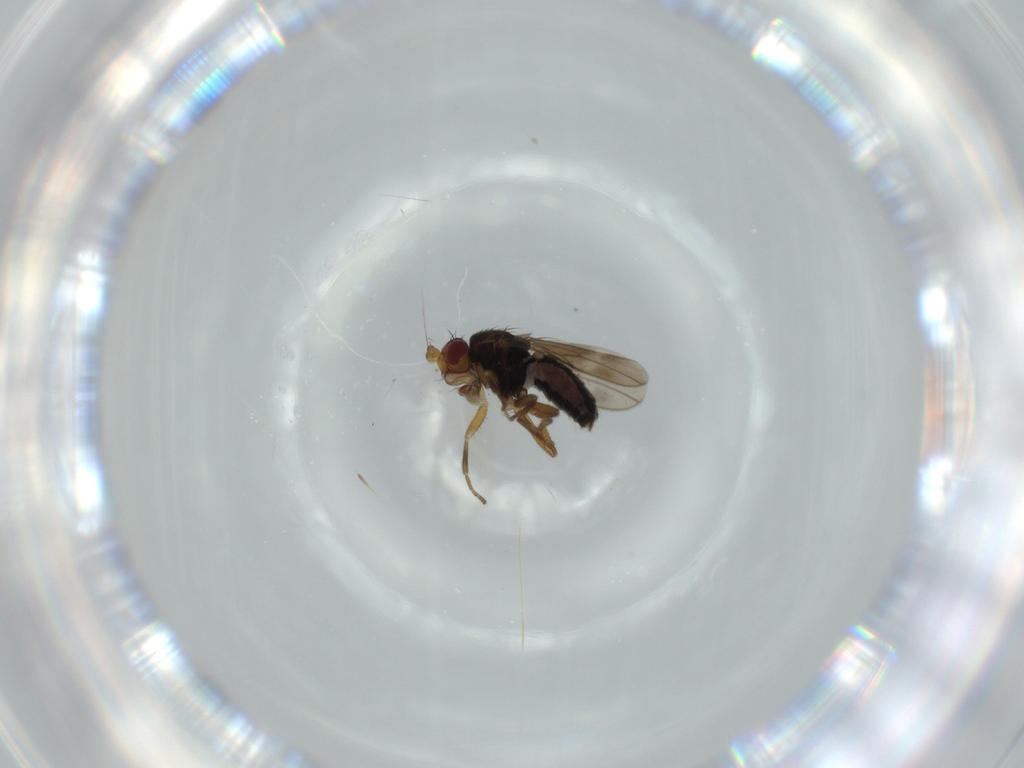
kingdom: Animalia
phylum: Arthropoda
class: Insecta
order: Diptera
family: Sphaeroceridae
